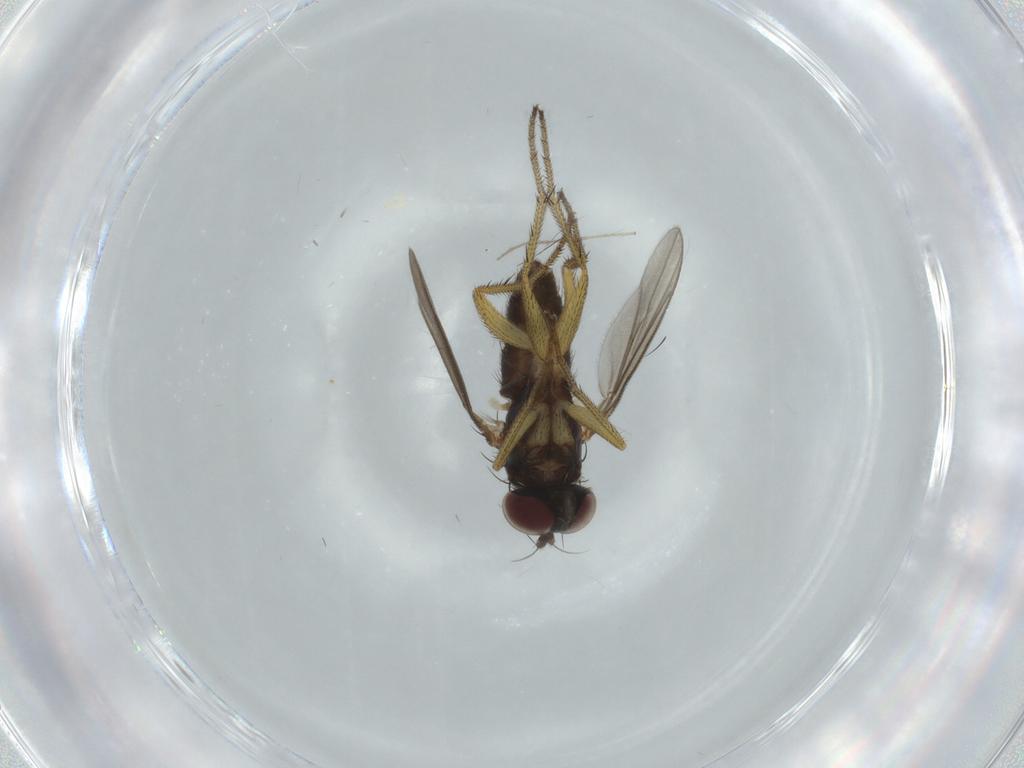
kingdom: Animalia
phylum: Arthropoda
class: Insecta
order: Diptera
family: Dolichopodidae
